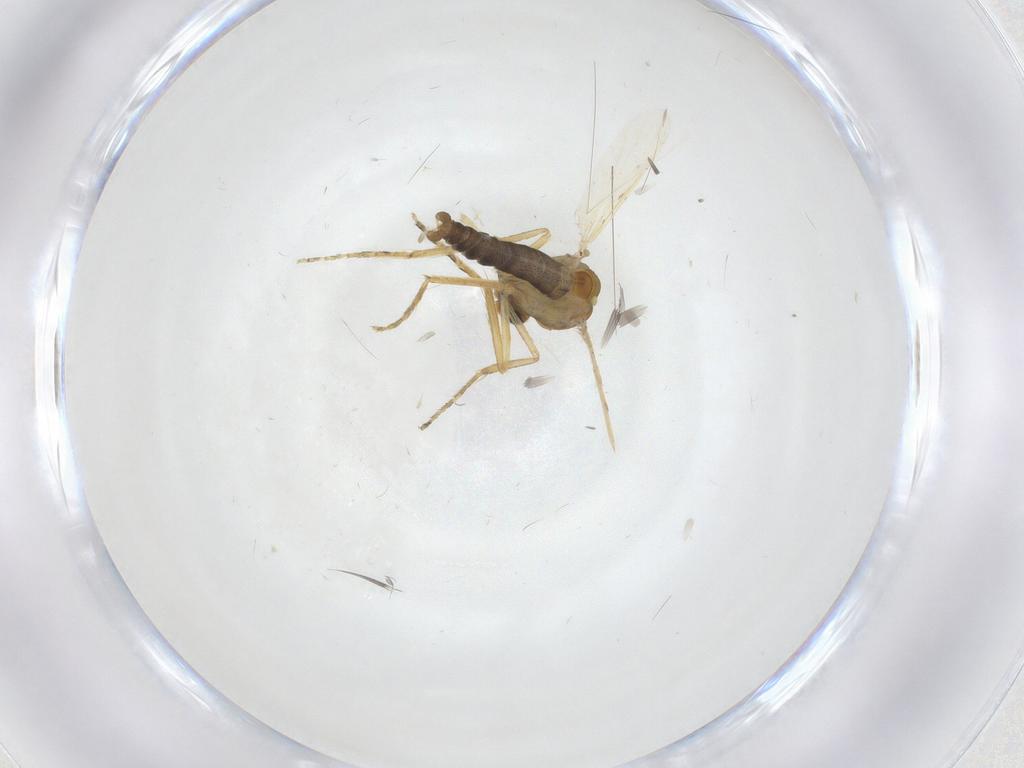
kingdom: Animalia
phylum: Arthropoda
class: Insecta
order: Diptera
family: Ceratopogonidae
